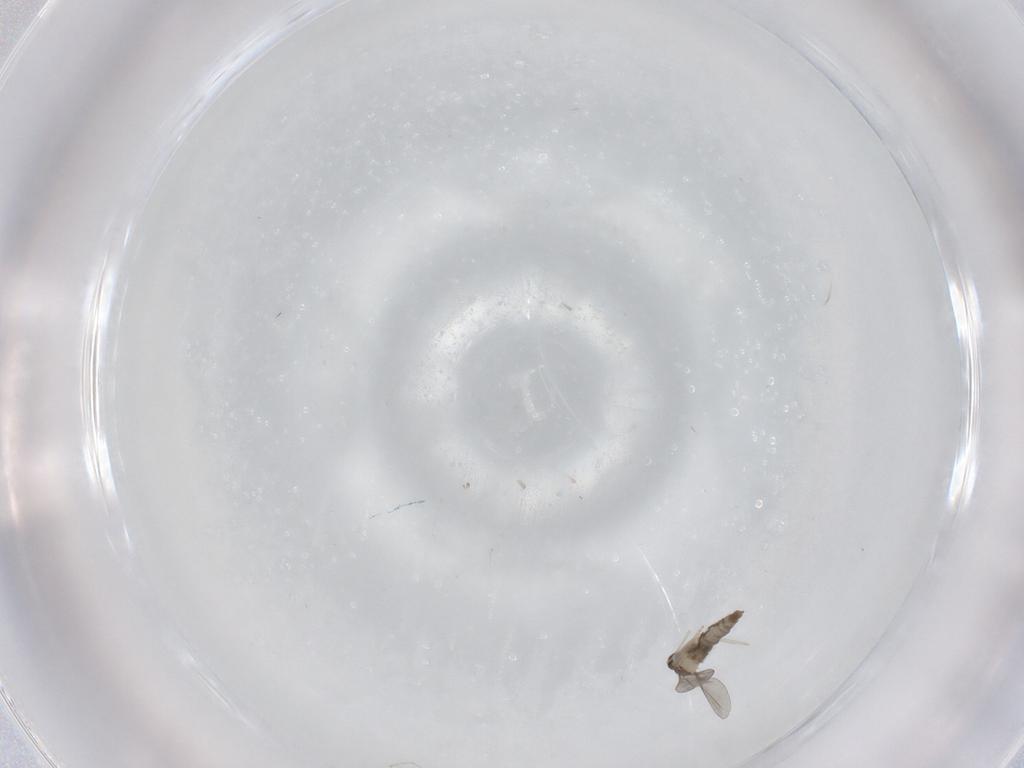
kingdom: Animalia
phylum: Arthropoda
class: Insecta
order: Diptera
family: Cecidomyiidae
